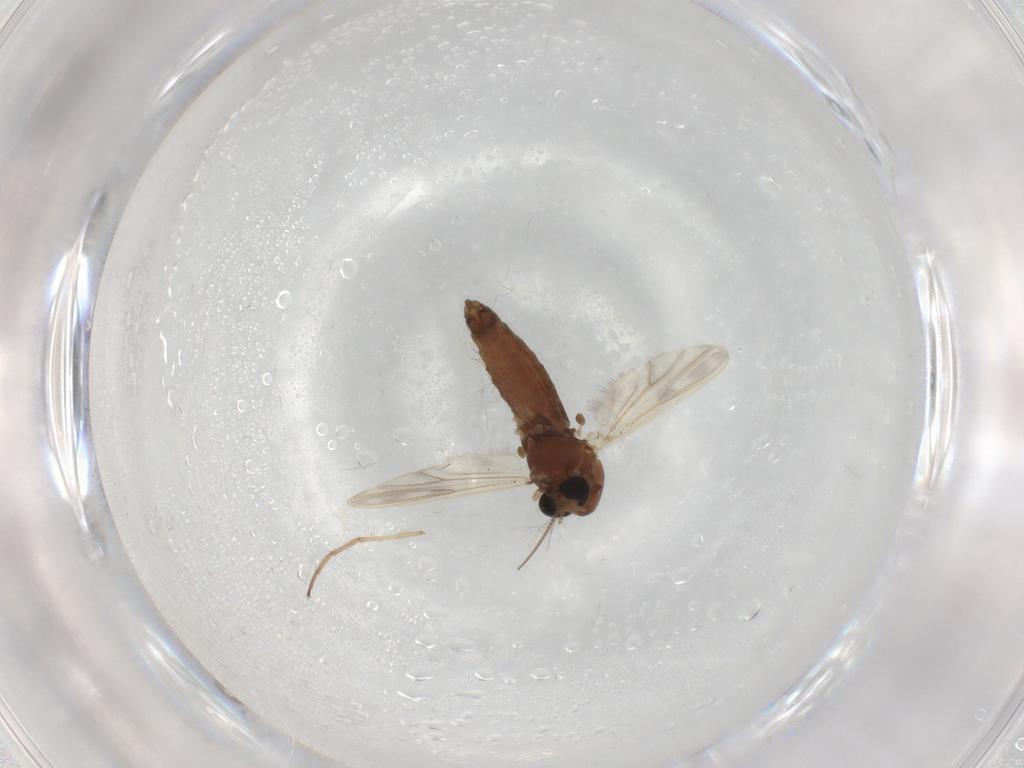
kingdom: Animalia
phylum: Arthropoda
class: Insecta
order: Diptera
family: Chironomidae
